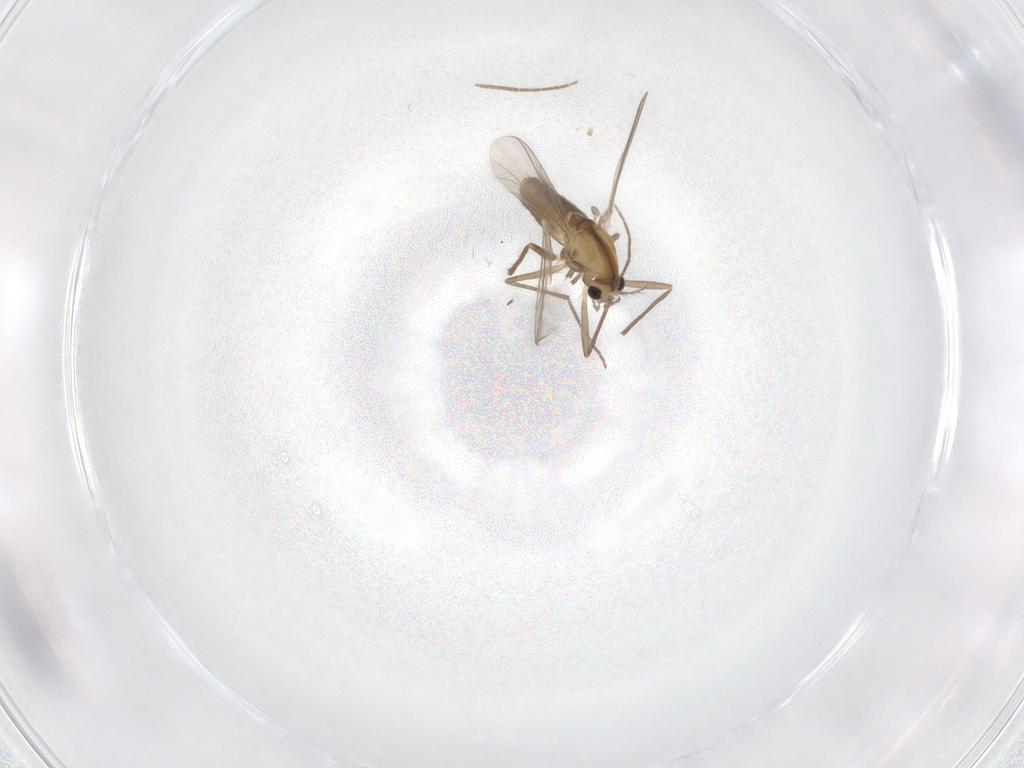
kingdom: Animalia
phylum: Arthropoda
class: Insecta
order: Diptera
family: Chironomidae
